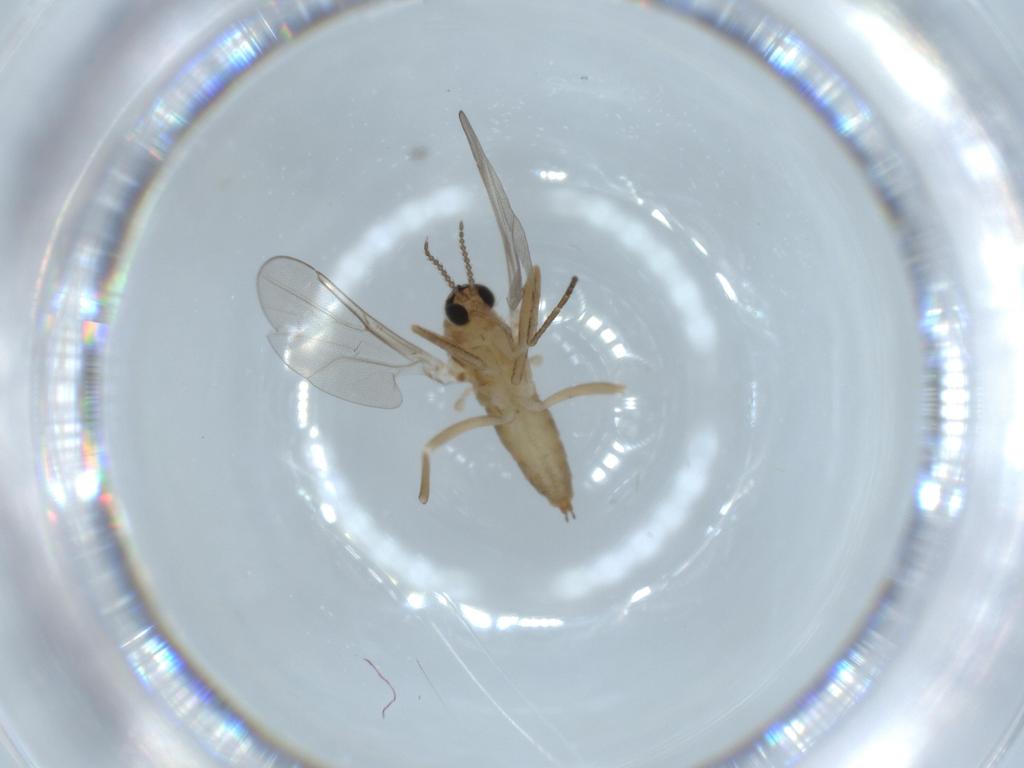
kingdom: Animalia
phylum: Arthropoda
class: Insecta
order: Diptera
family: Cecidomyiidae
